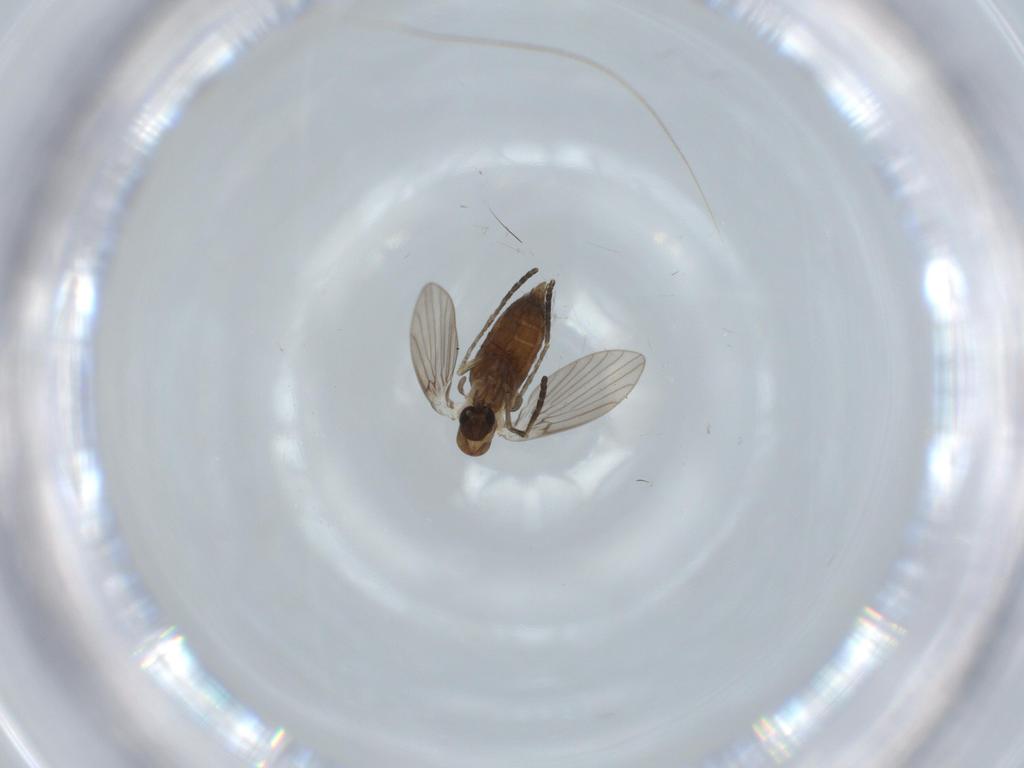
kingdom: Animalia
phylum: Arthropoda
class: Insecta
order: Diptera
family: Psychodidae
